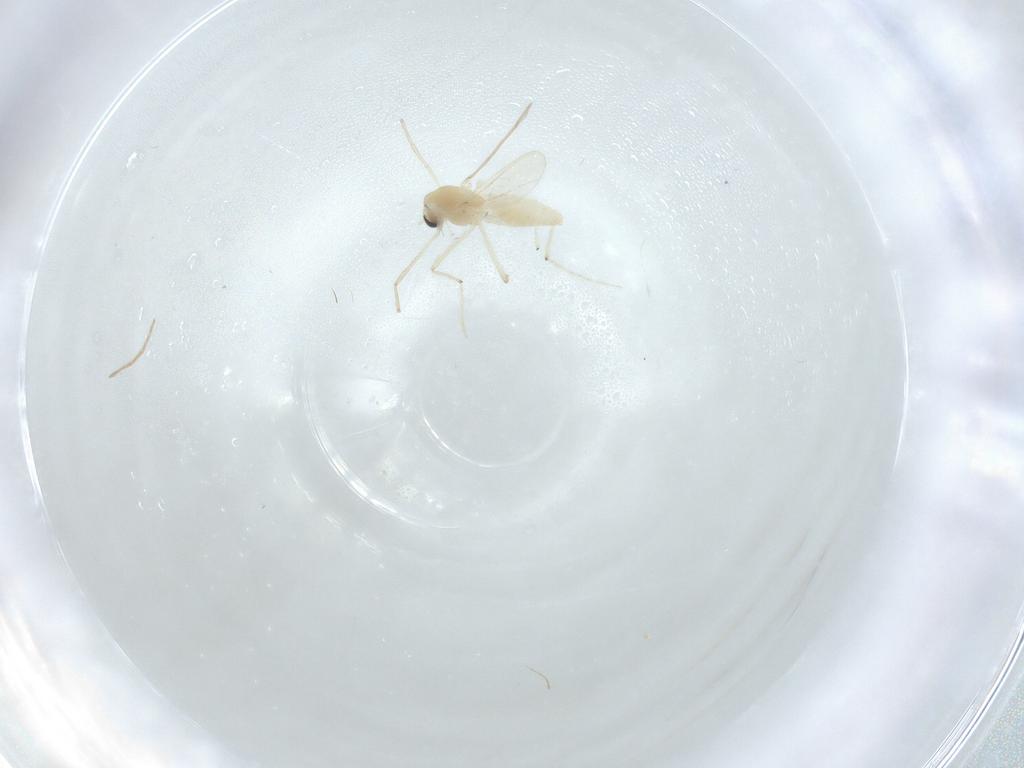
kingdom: Animalia
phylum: Arthropoda
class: Insecta
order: Diptera
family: Chironomidae
